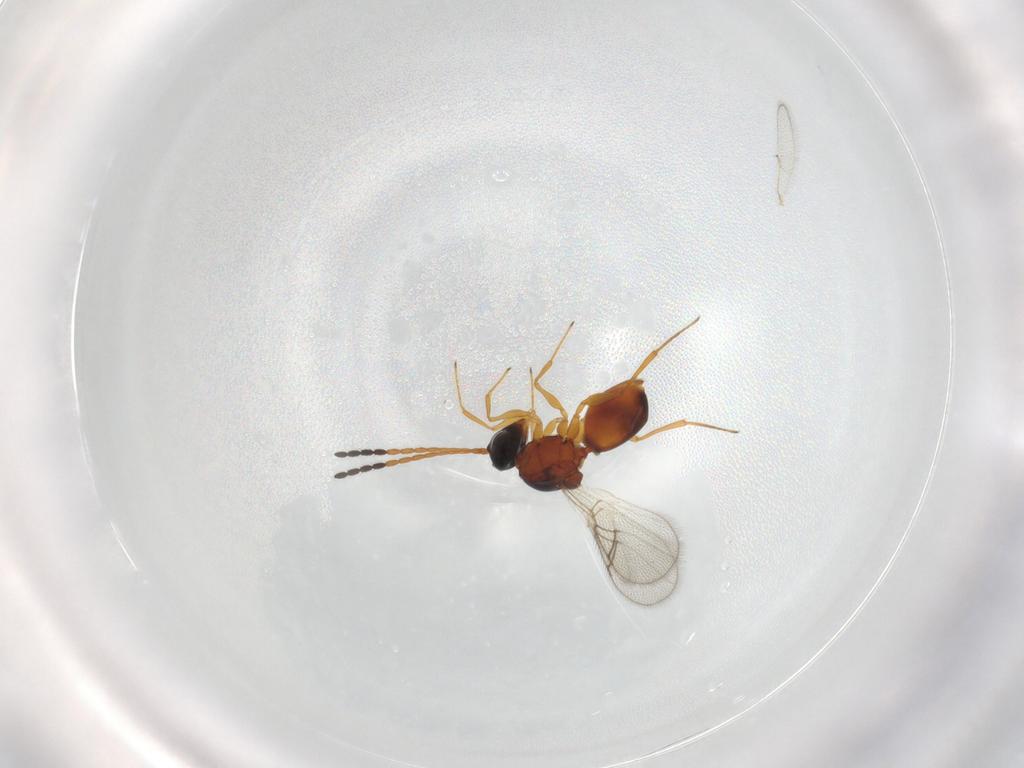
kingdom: Animalia
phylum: Arthropoda
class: Insecta
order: Hymenoptera
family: Figitidae
